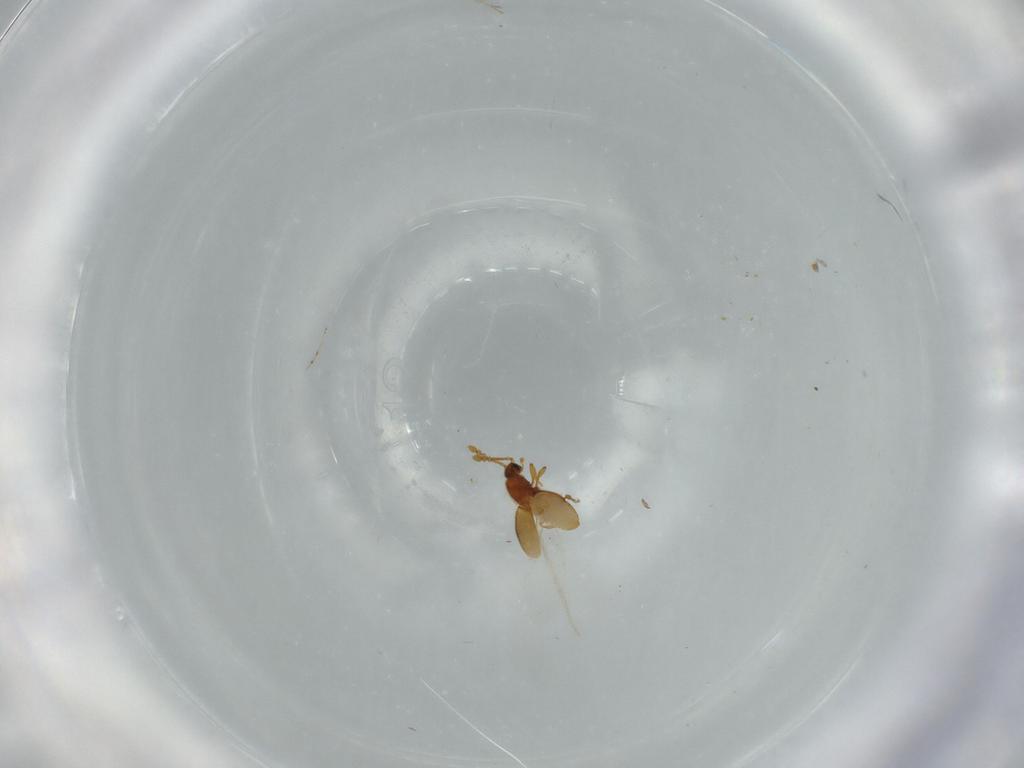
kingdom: Animalia
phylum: Arthropoda
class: Insecta
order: Coleoptera
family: Staphylinidae
